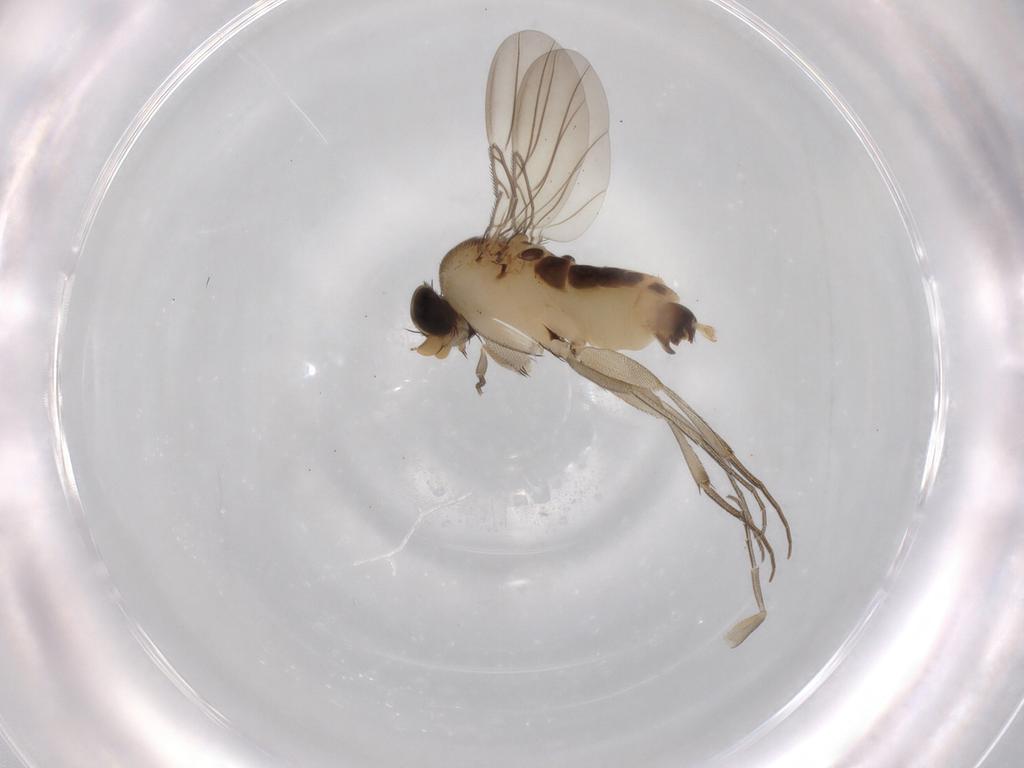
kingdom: Animalia
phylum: Arthropoda
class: Insecta
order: Diptera
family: Phoridae
